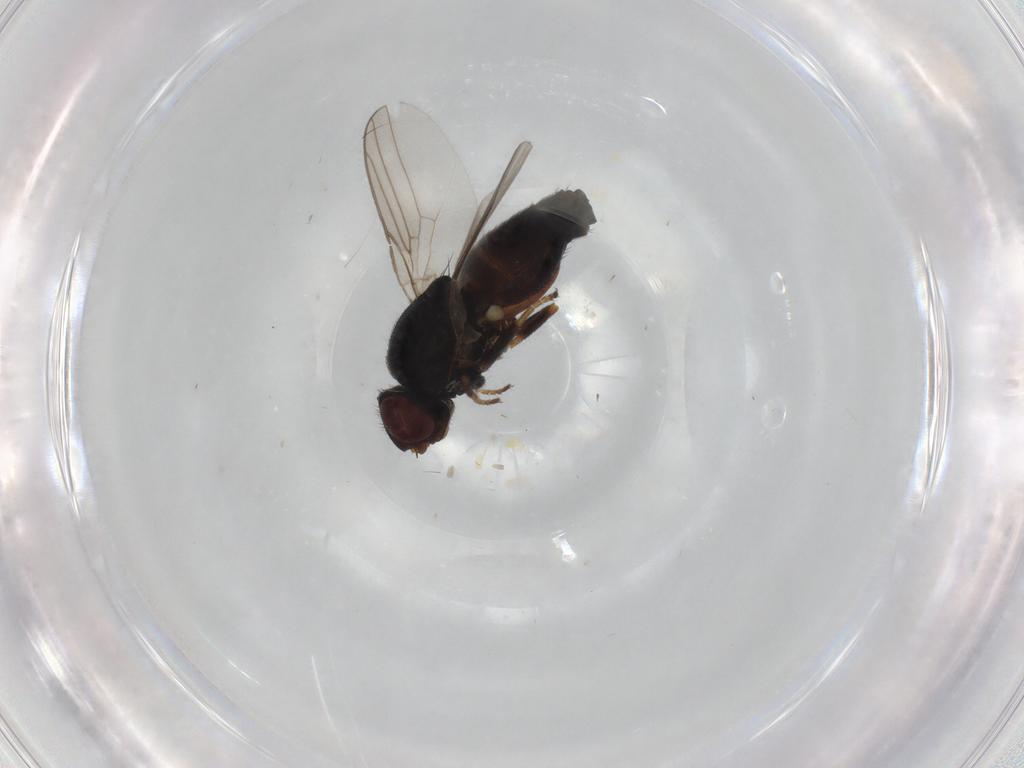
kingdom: Animalia
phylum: Arthropoda
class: Insecta
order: Diptera
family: Chloropidae
